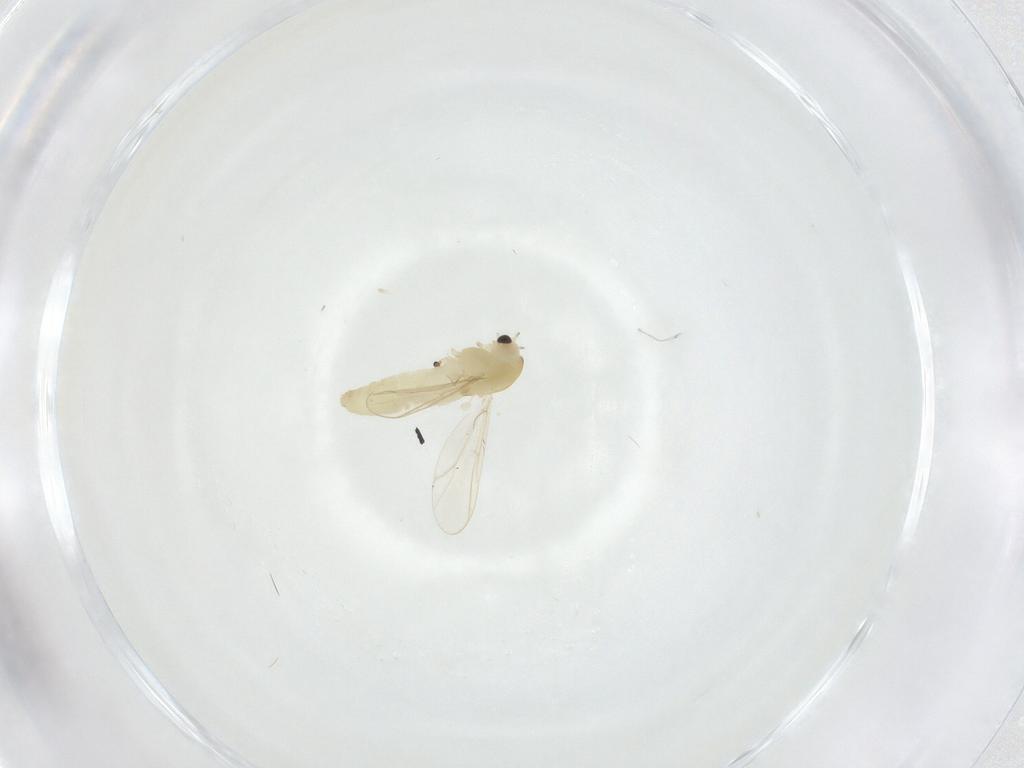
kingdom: Animalia
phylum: Arthropoda
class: Insecta
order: Diptera
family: Chironomidae
